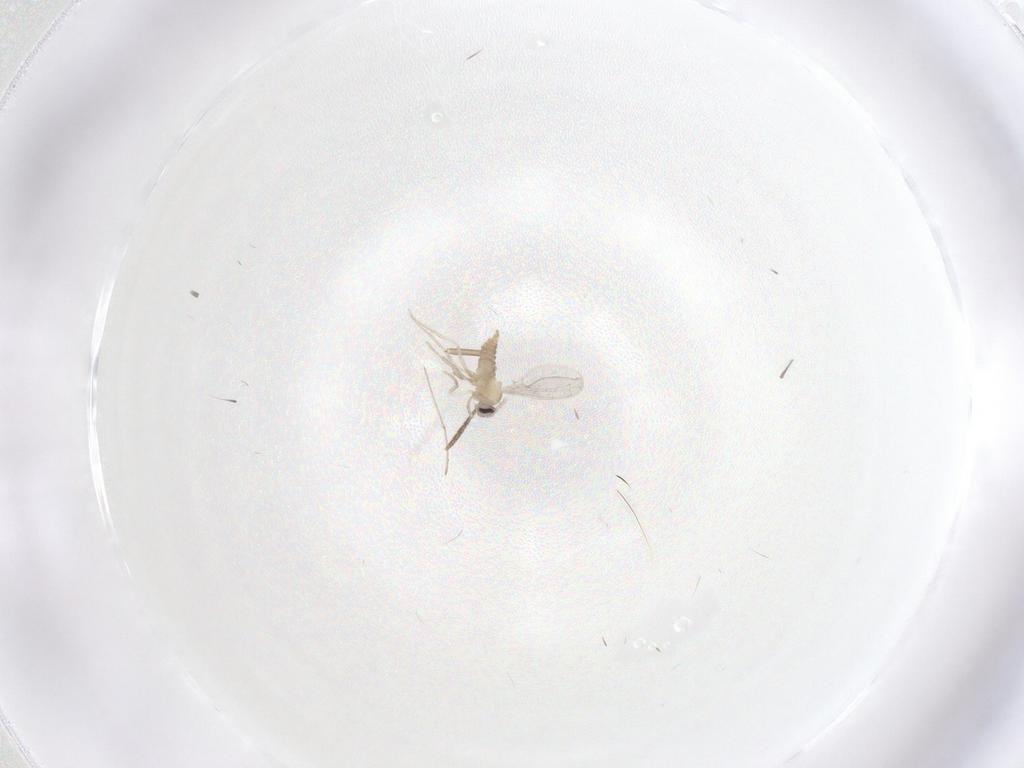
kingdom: Animalia
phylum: Arthropoda
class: Insecta
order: Diptera
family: Cecidomyiidae
